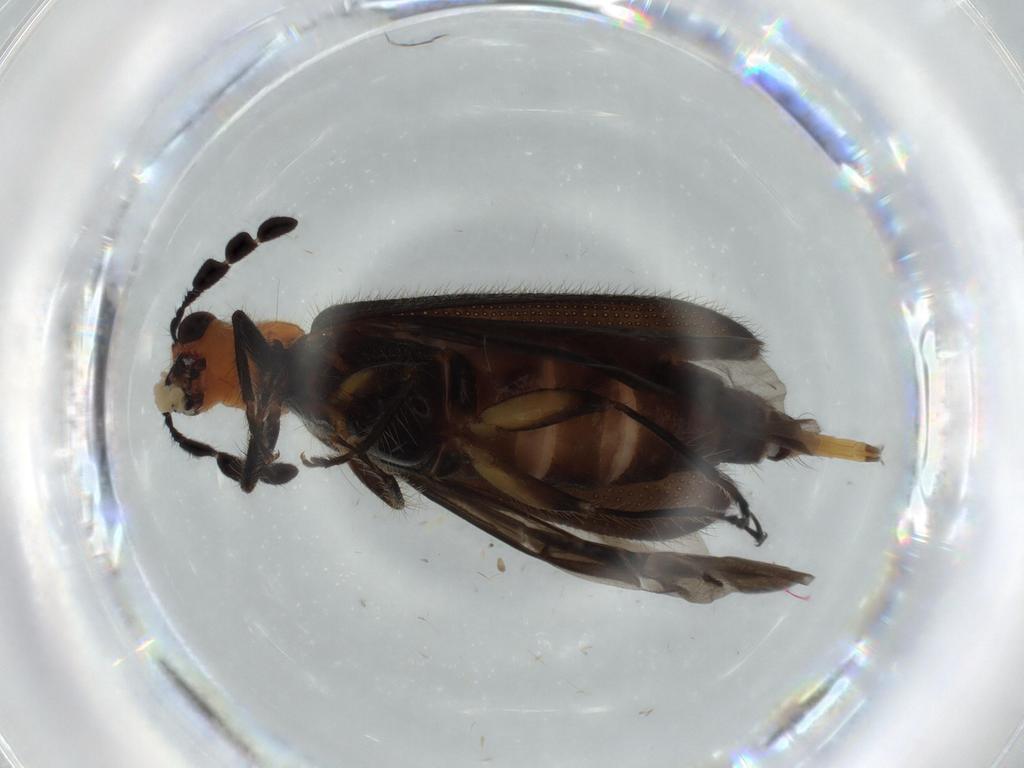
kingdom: Animalia
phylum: Arthropoda
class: Insecta
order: Coleoptera
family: Cleridae
